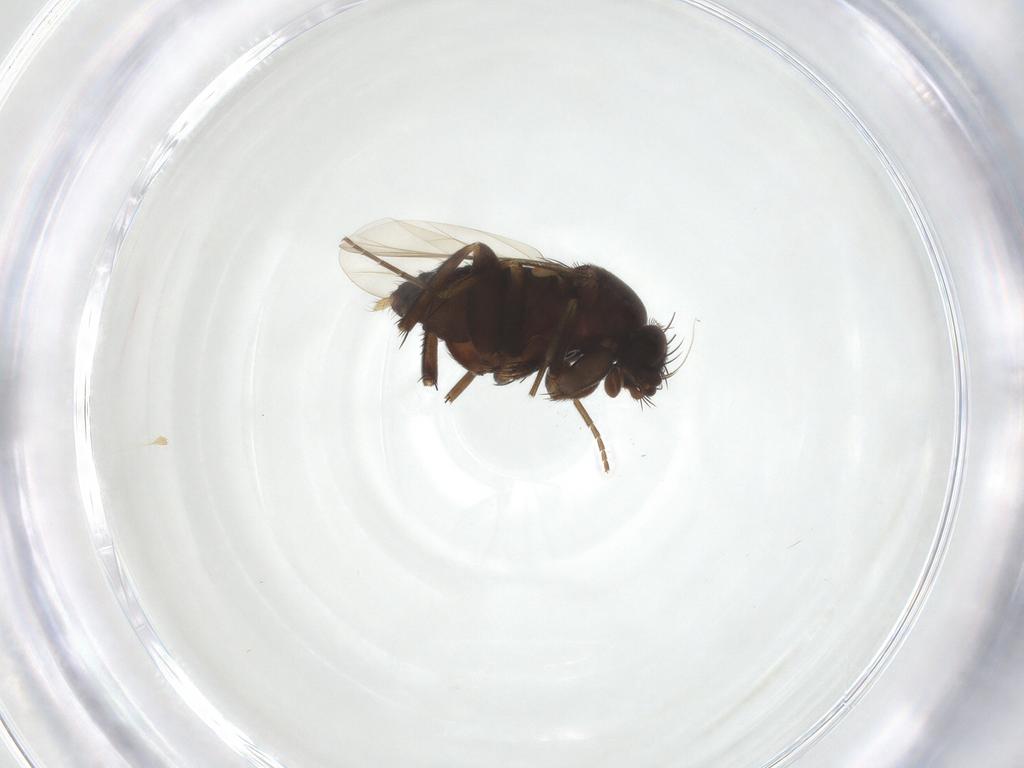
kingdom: Animalia
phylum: Arthropoda
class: Insecta
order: Diptera
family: Phoridae
